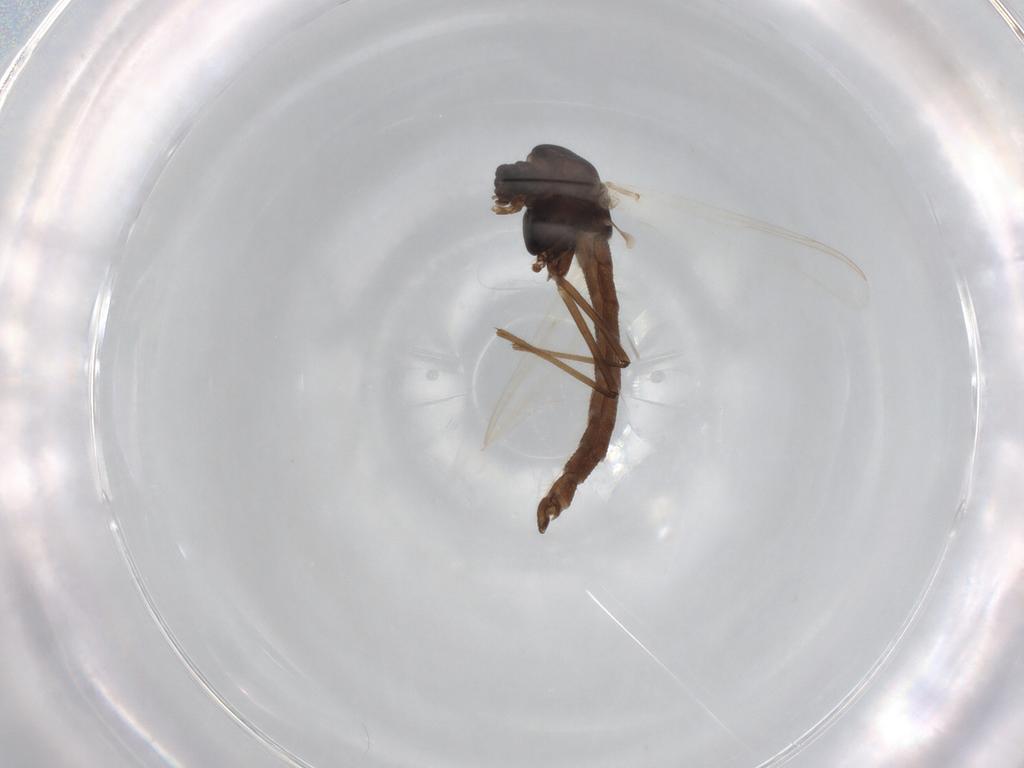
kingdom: Animalia
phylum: Arthropoda
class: Insecta
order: Diptera
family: Chironomidae
